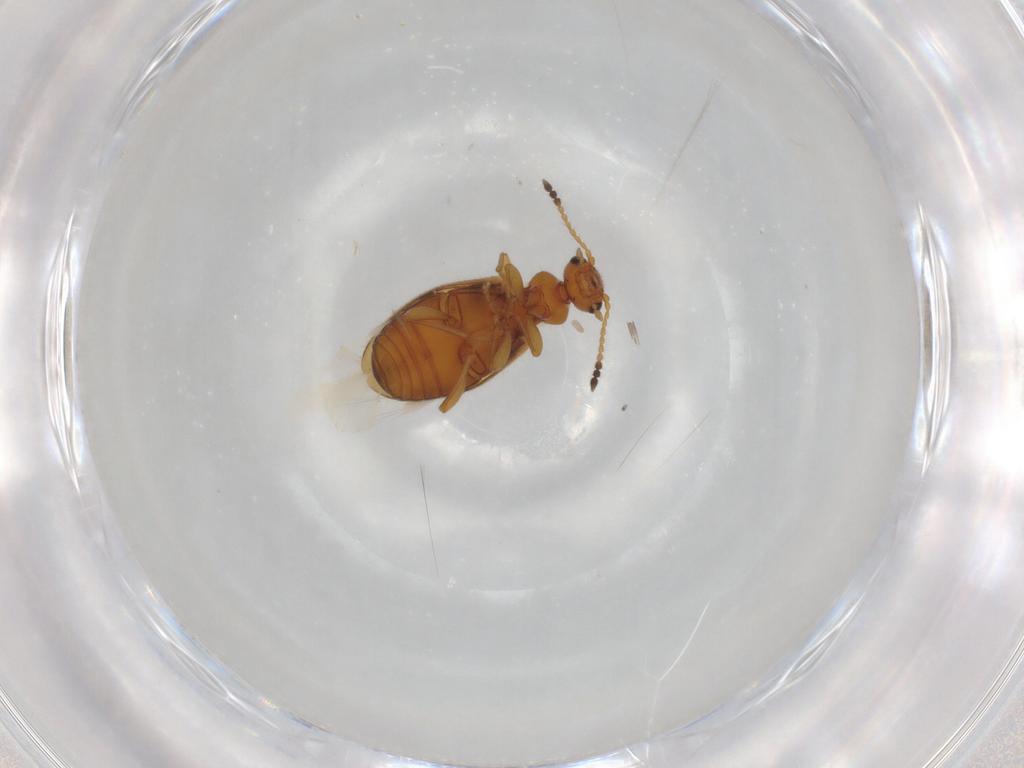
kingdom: Animalia
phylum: Arthropoda
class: Insecta
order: Coleoptera
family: Anthicidae
